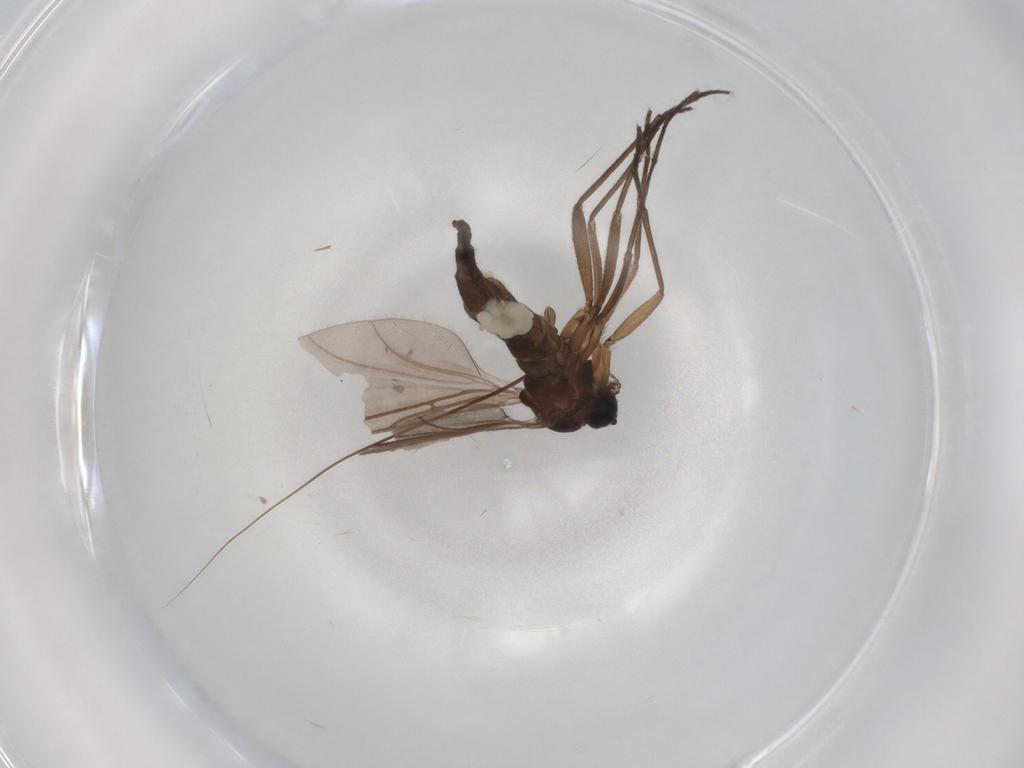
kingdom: Animalia
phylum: Arthropoda
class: Insecta
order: Diptera
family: Sciaridae
